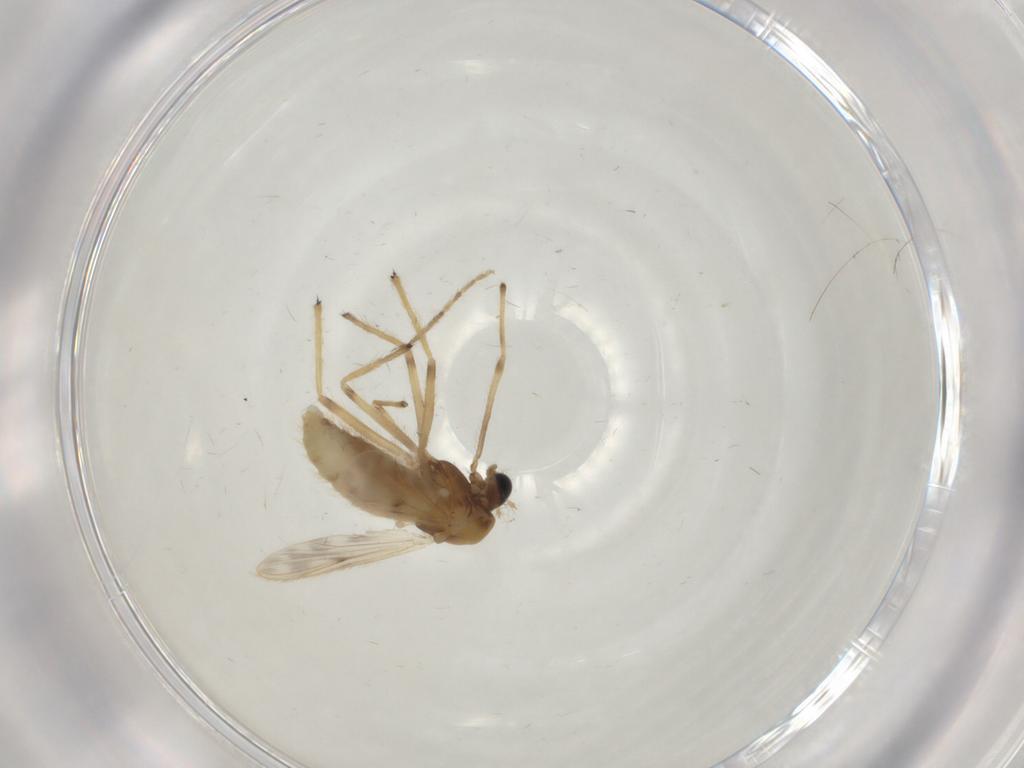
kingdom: Animalia
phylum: Arthropoda
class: Insecta
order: Diptera
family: Chironomidae
